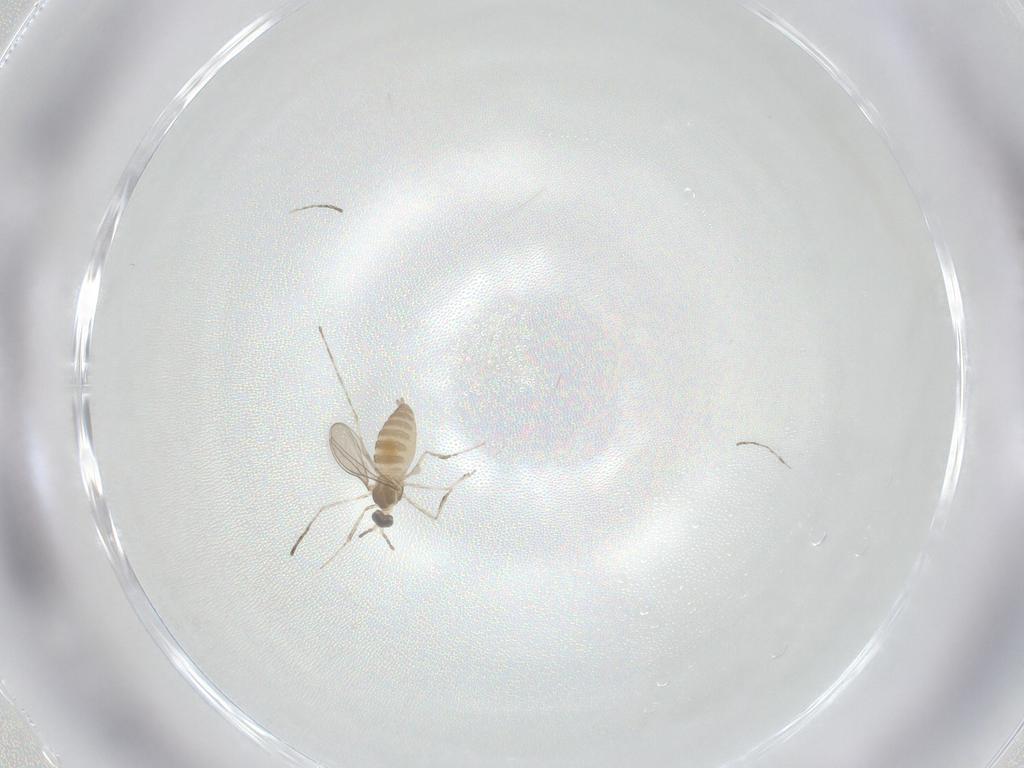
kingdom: Animalia
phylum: Arthropoda
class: Insecta
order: Diptera
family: Cecidomyiidae
